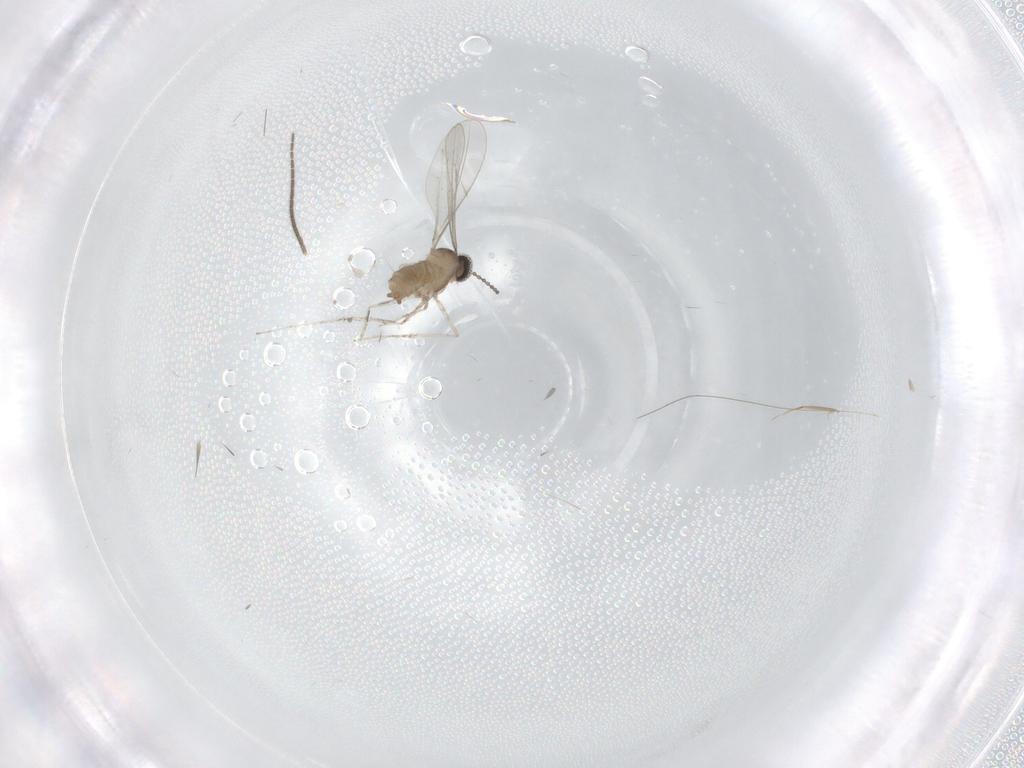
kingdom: Animalia
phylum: Arthropoda
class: Insecta
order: Diptera
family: Sciaridae
